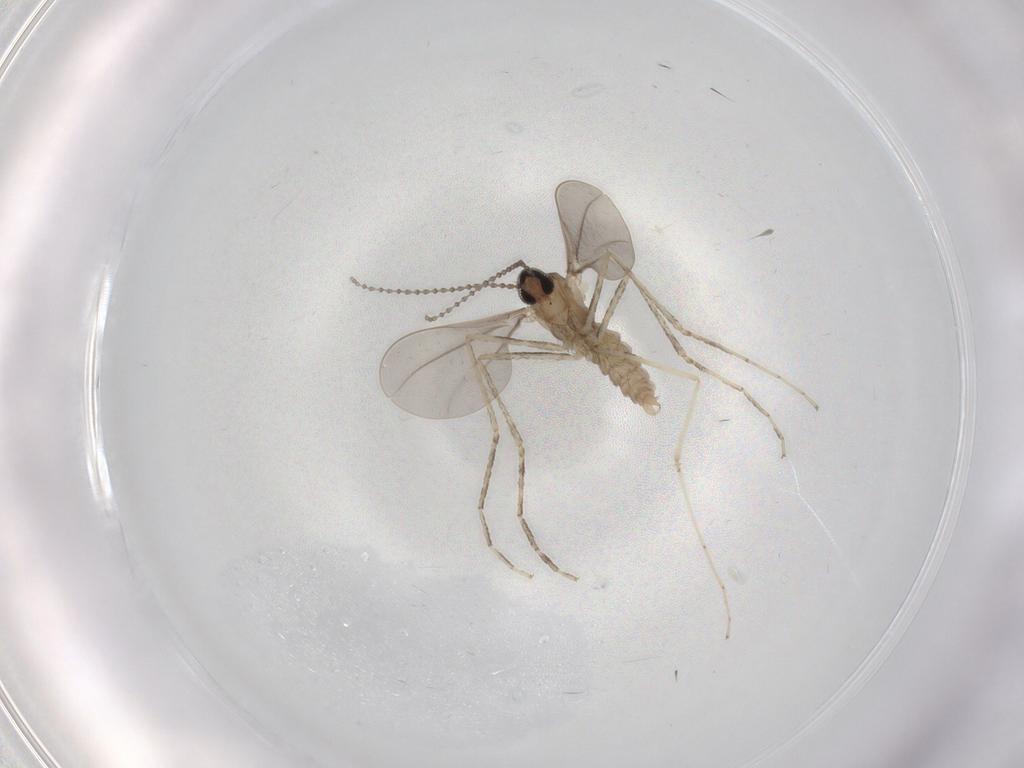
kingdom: Animalia
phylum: Arthropoda
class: Insecta
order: Diptera
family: Cecidomyiidae
